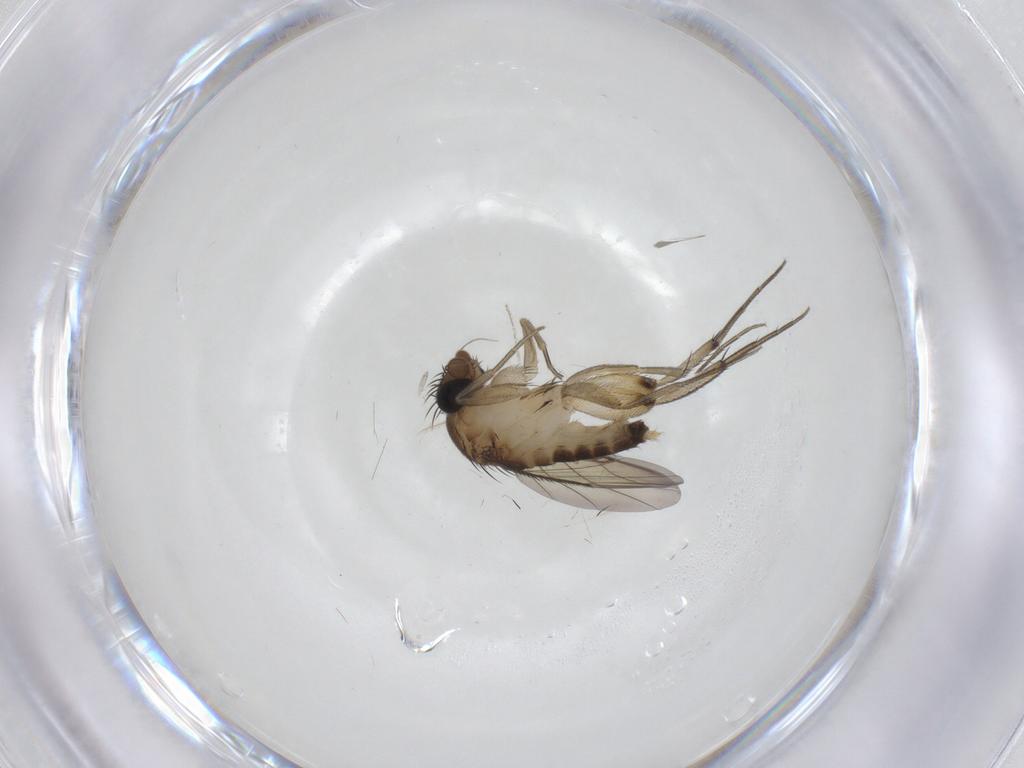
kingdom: Animalia
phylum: Arthropoda
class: Insecta
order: Diptera
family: Phoridae
